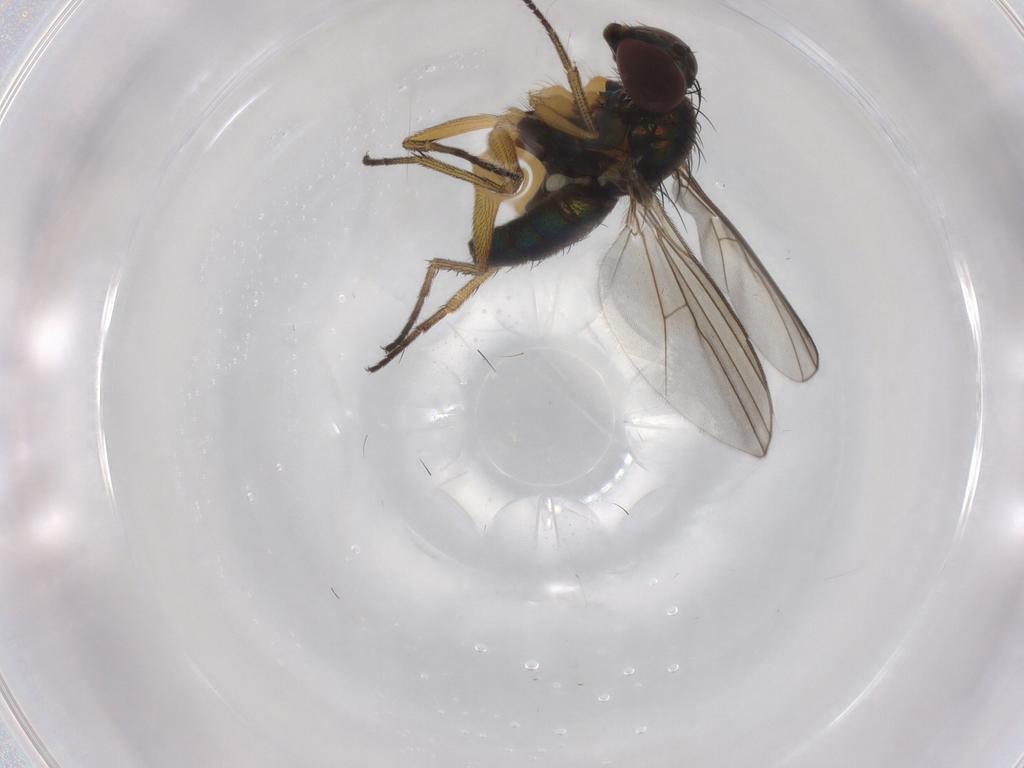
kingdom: Animalia
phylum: Arthropoda
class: Insecta
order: Diptera
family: Dolichopodidae
